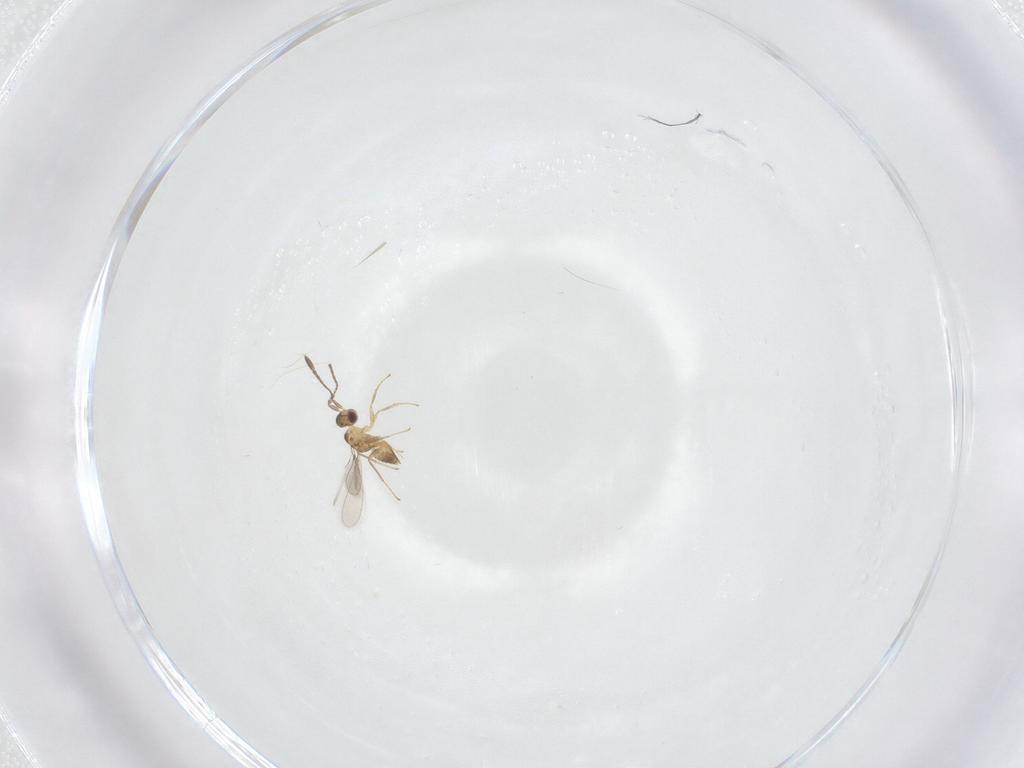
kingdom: Animalia
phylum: Arthropoda
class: Insecta
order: Hymenoptera
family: Mymaridae
